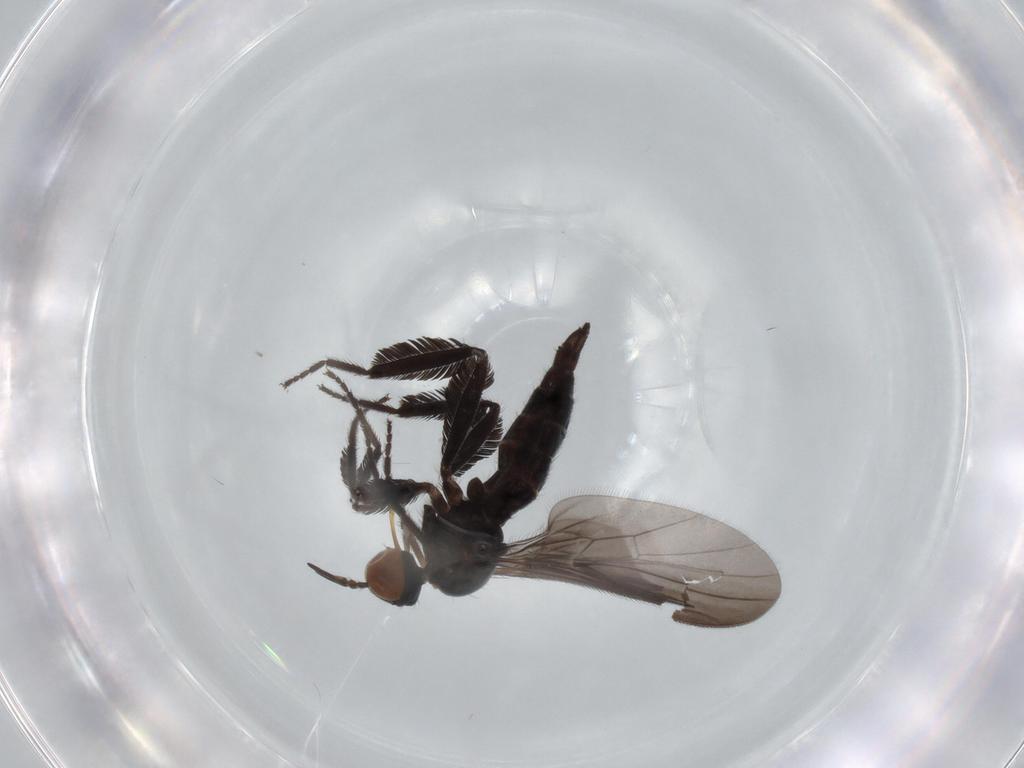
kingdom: Animalia
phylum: Arthropoda
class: Insecta
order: Diptera
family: Empididae
